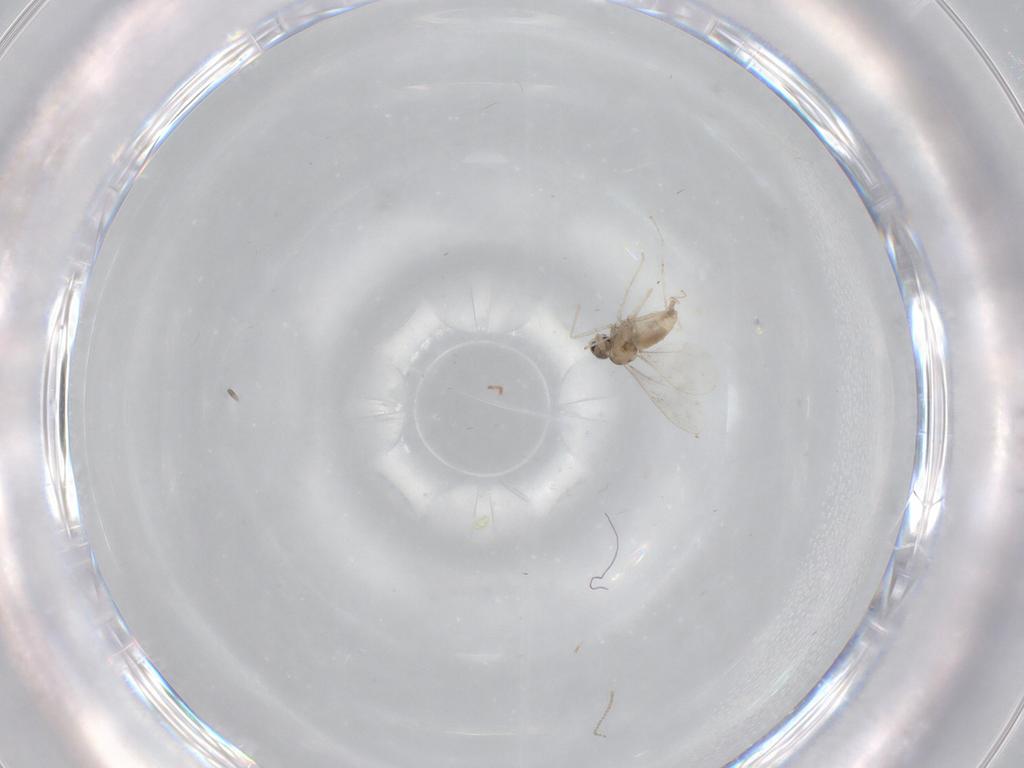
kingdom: Animalia
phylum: Arthropoda
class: Insecta
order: Diptera
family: Cecidomyiidae
